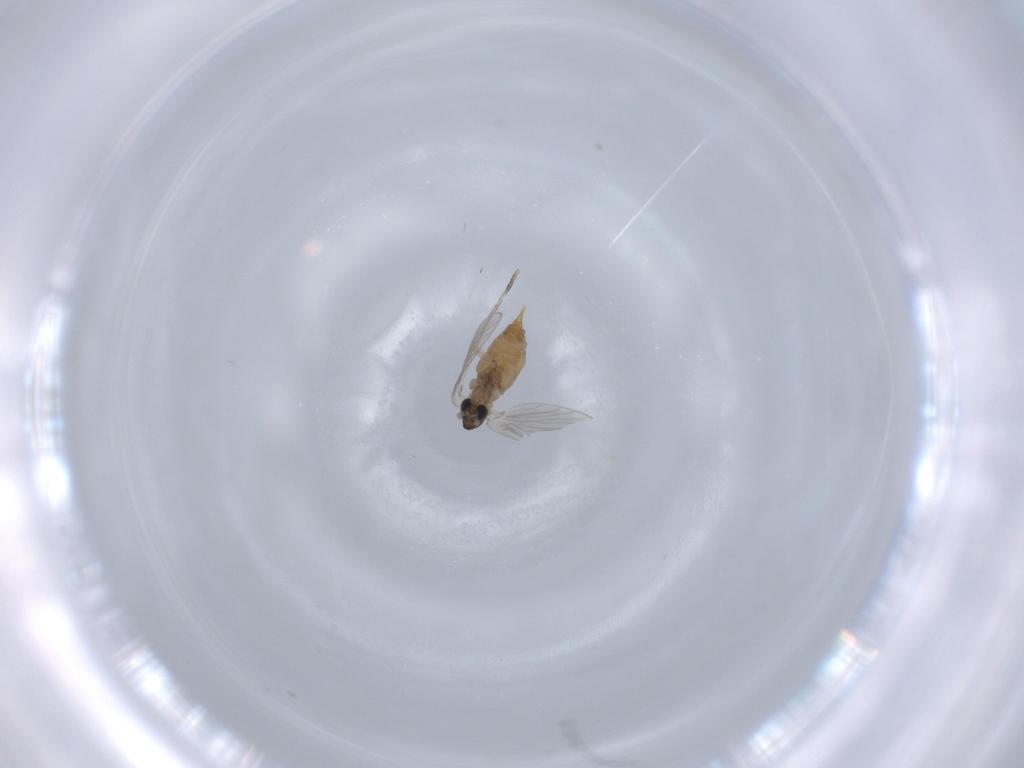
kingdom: Animalia
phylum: Arthropoda
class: Insecta
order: Diptera
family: Psychodidae
